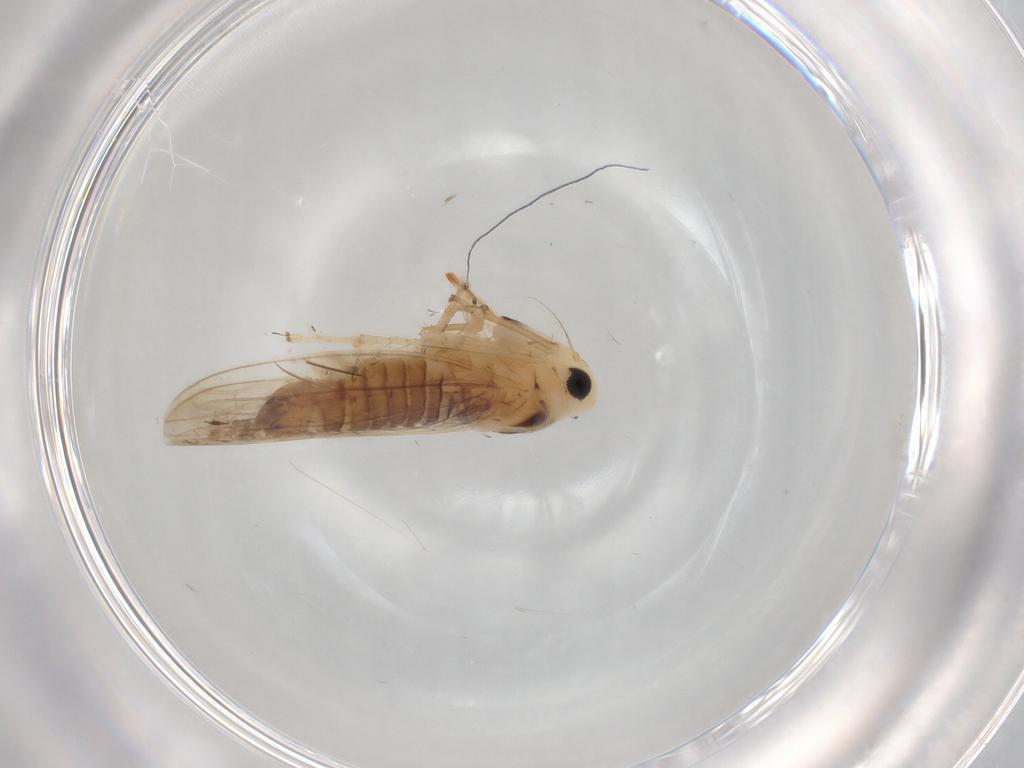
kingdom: Animalia
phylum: Arthropoda
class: Insecta
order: Hemiptera
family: Cicadellidae
